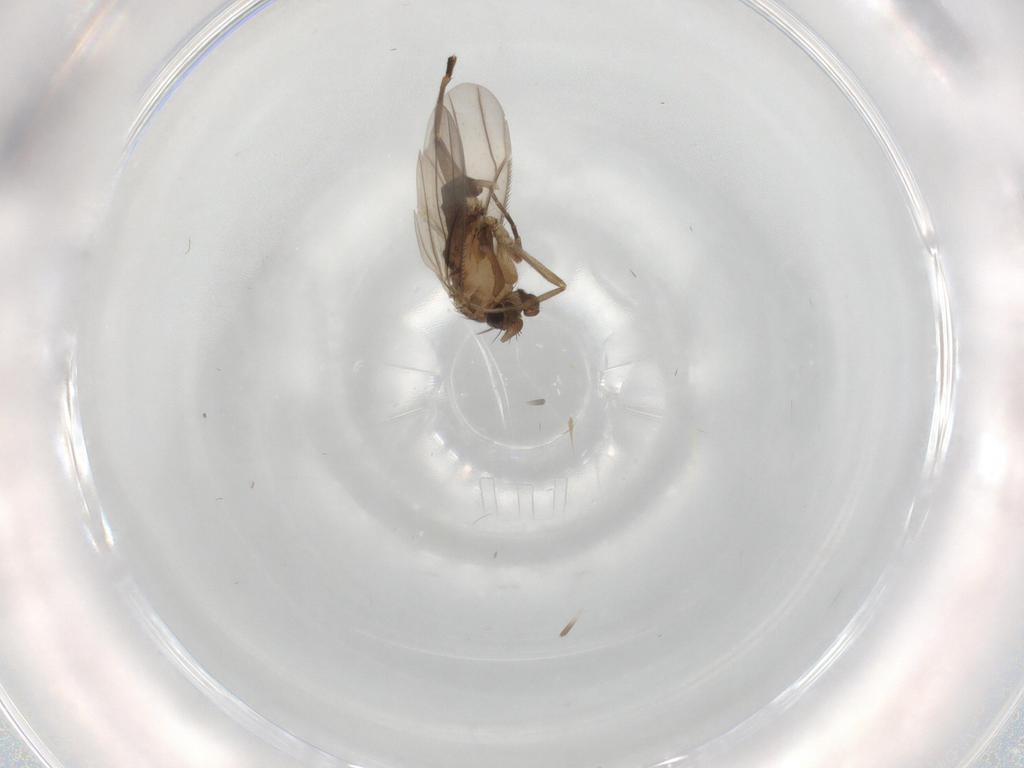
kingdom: Animalia
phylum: Arthropoda
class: Insecta
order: Diptera
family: Phoridae
